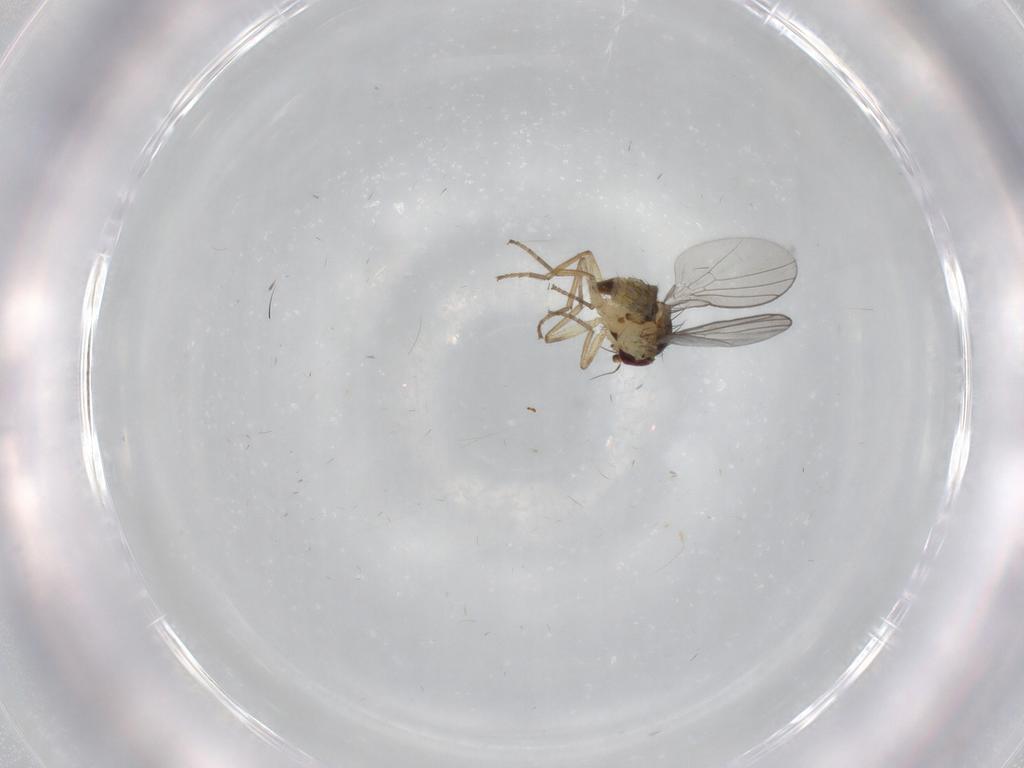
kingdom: Animalia
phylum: Arthropoda
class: Insecta
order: Diptera
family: Agromyzidae
